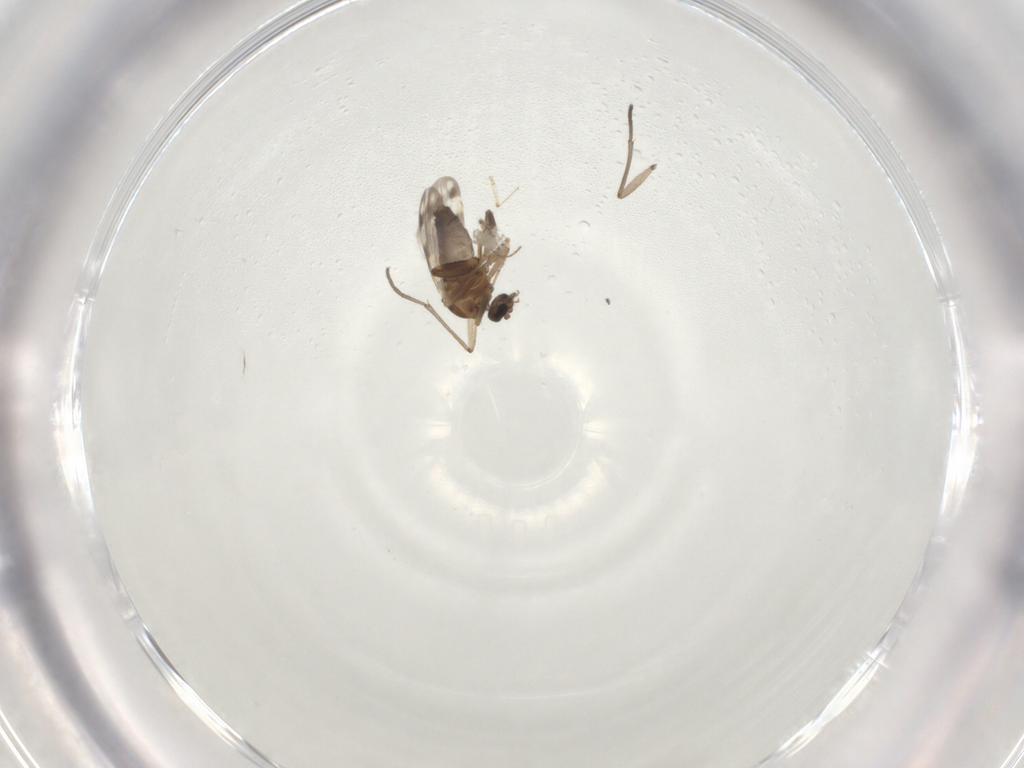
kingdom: Animalia
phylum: Arthropoda
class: Insecta
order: Diptera
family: Ceratopogonidae
